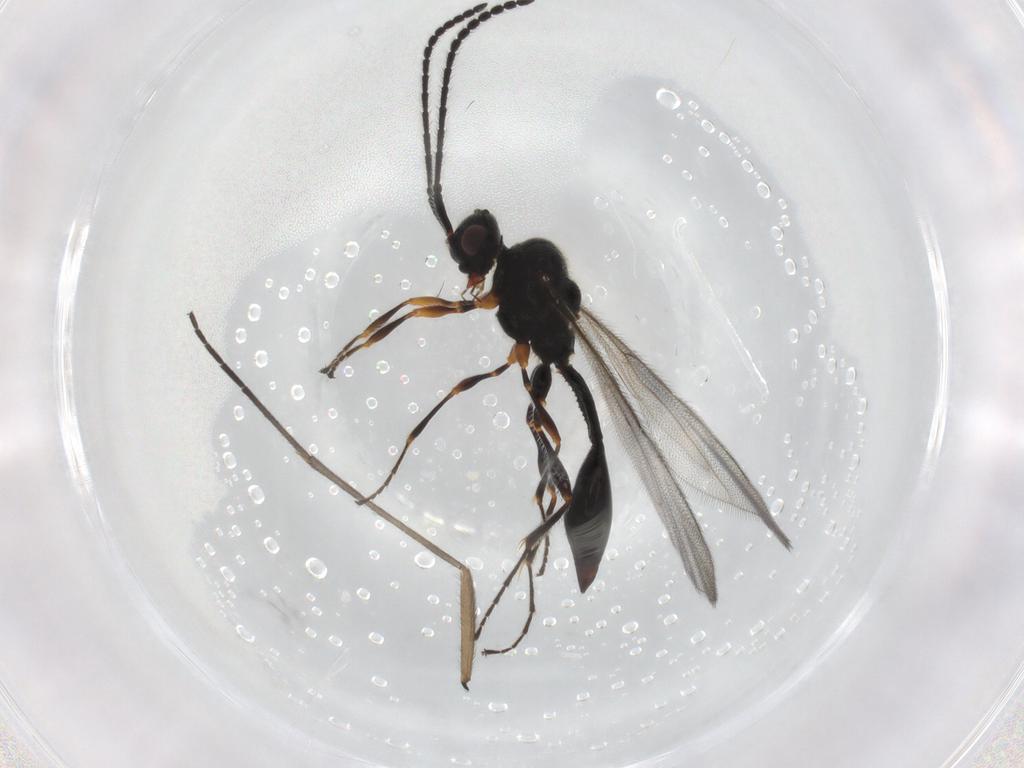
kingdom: Animalia
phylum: Arthropoda
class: Insecta
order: Hymenoptera
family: Diapriidae
